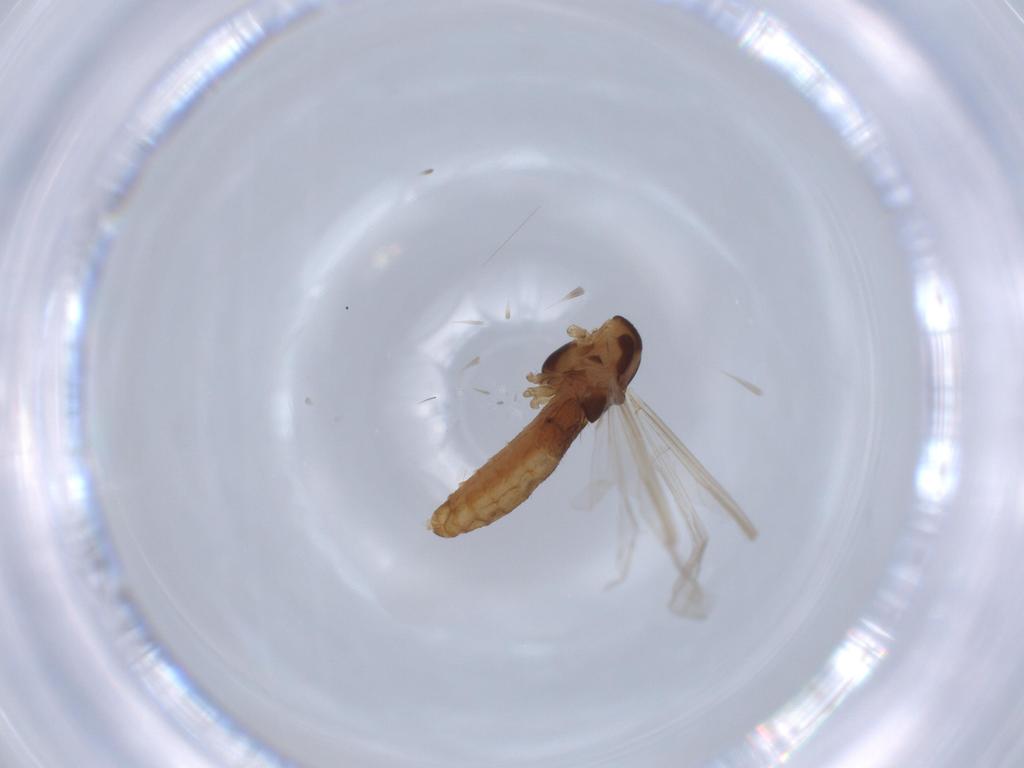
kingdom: Animalia
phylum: Arthropoda
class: Insecta
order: Diptera
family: Chironomidae
